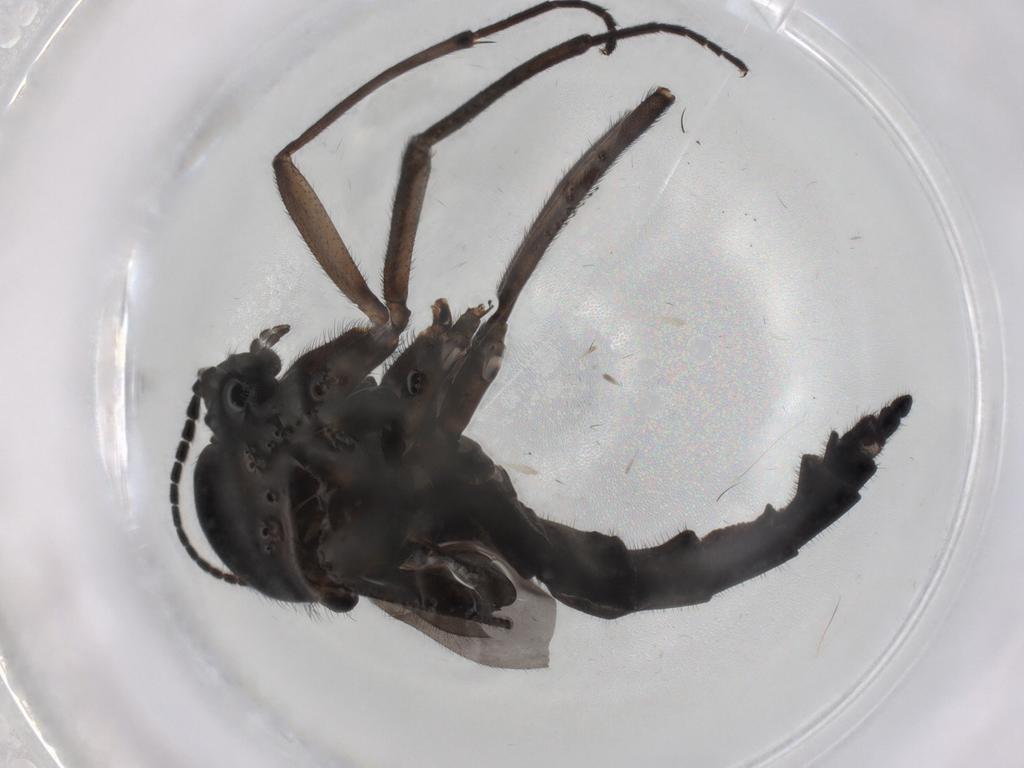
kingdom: Animalia
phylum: Arthropoda
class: Insecta
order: Diptera
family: Sciaridae
